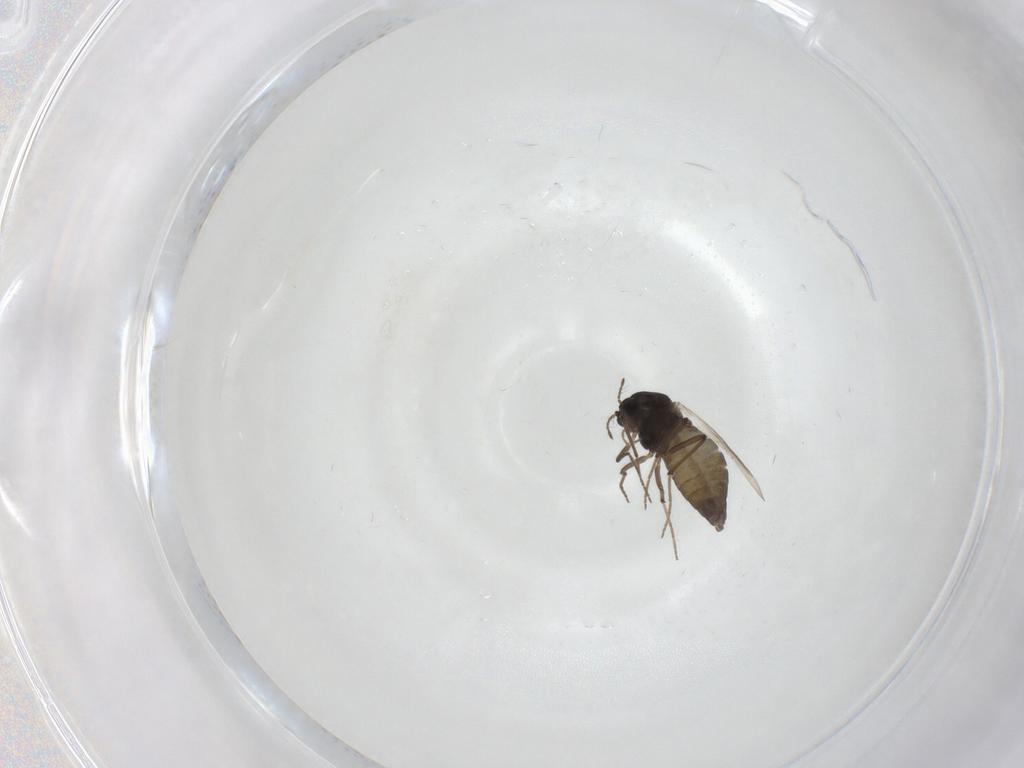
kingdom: Animalia
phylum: Arthropoda
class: Insecta
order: Diptera
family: Chironomidae
